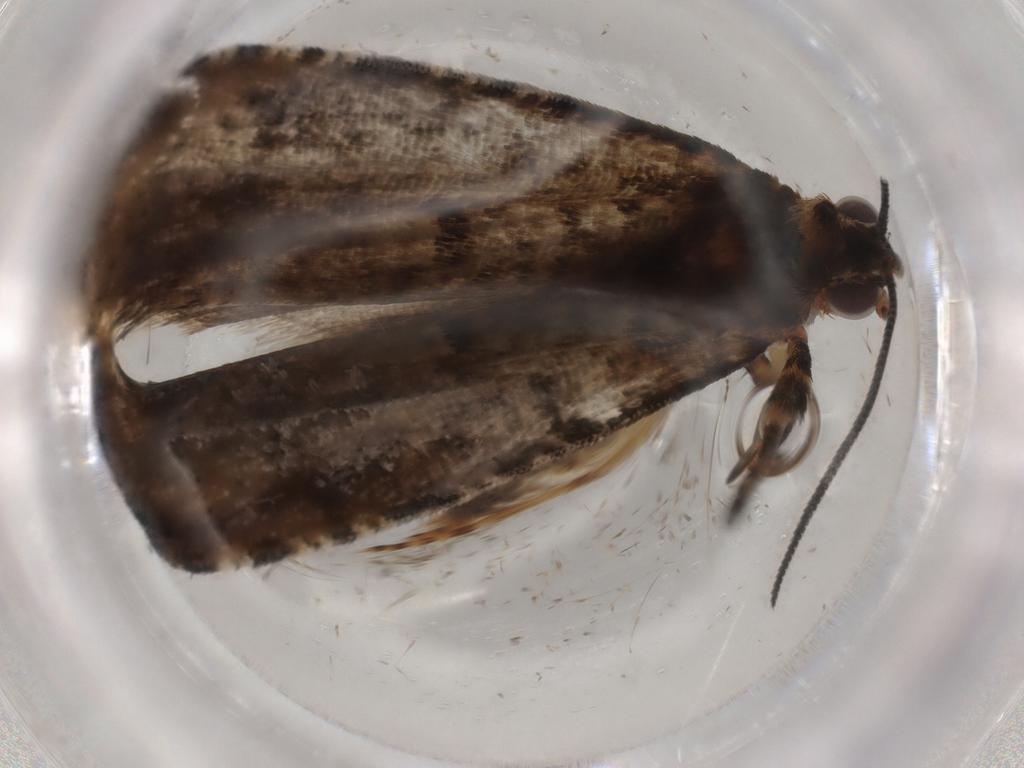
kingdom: Animalia
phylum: Arthropoda
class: Insecta
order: Lepidoptera
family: Tortricidae
